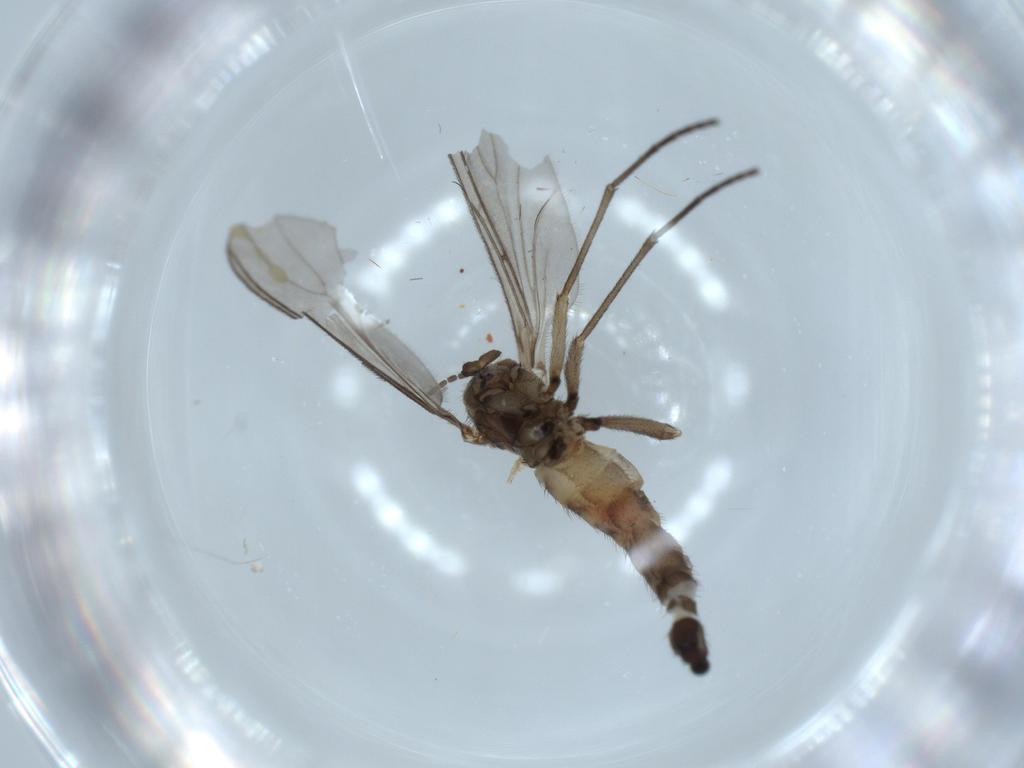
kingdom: Animalia
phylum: Arthropoda
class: Insecta
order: Diptera
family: Sciaridae
